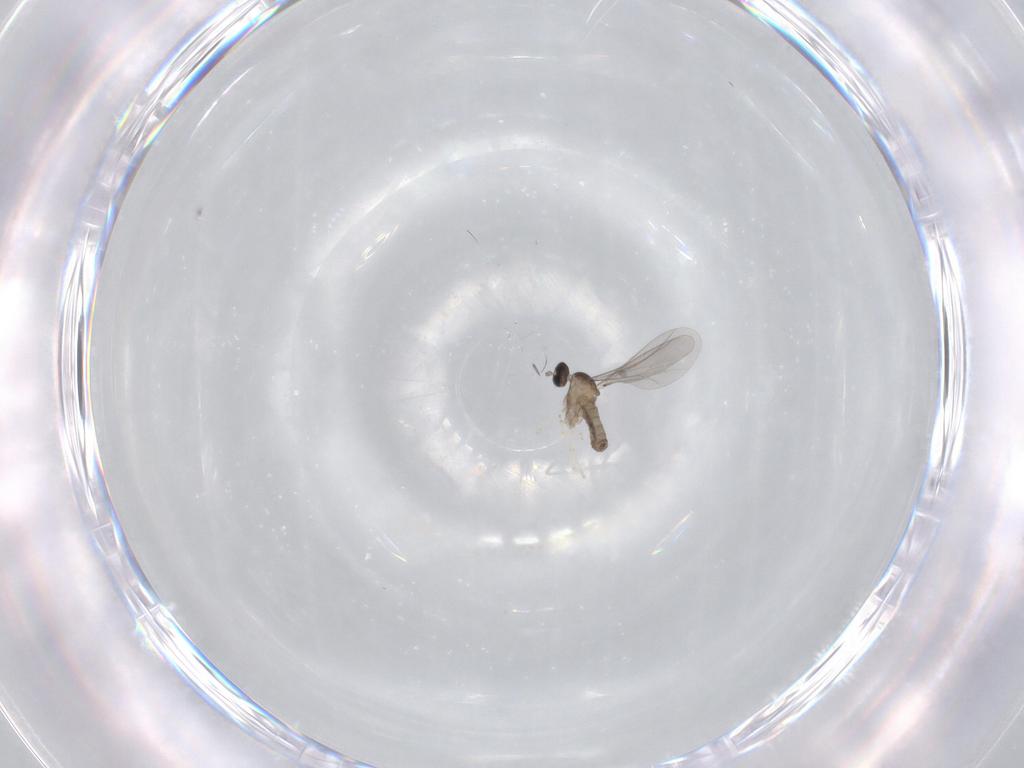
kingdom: Animalia
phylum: Arthropoda
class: Insecta
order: Diptera
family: Cecidomyiidae
